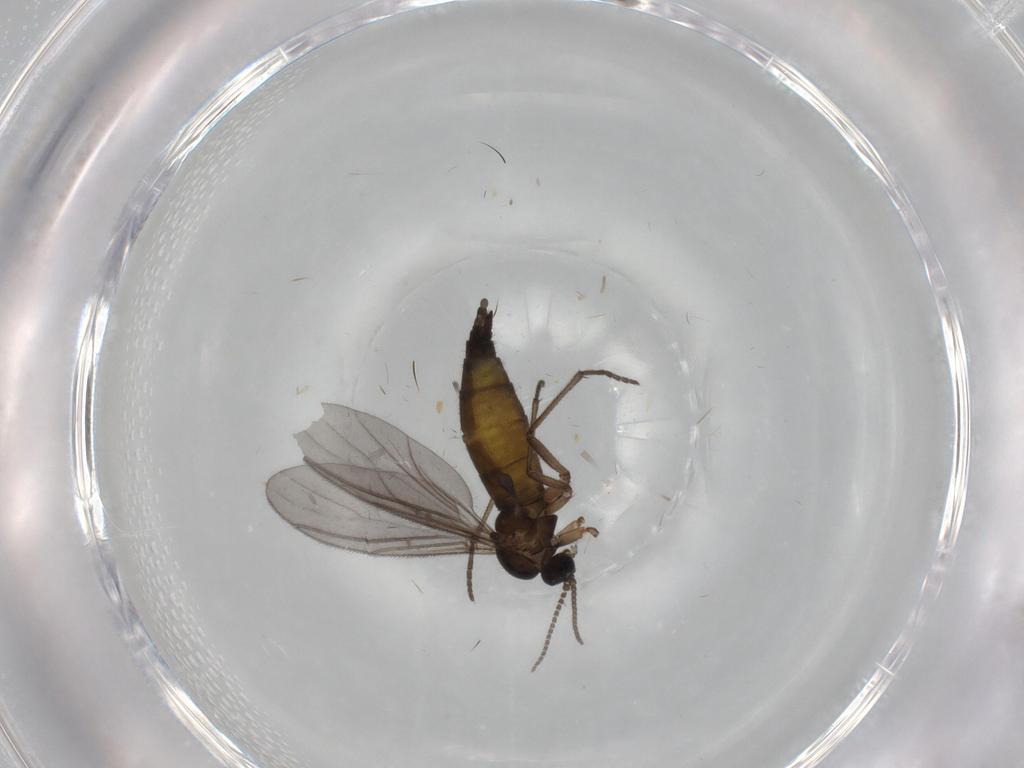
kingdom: Animalia
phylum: Arthropoda
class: Insecta
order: Diptera
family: Sciaridae
